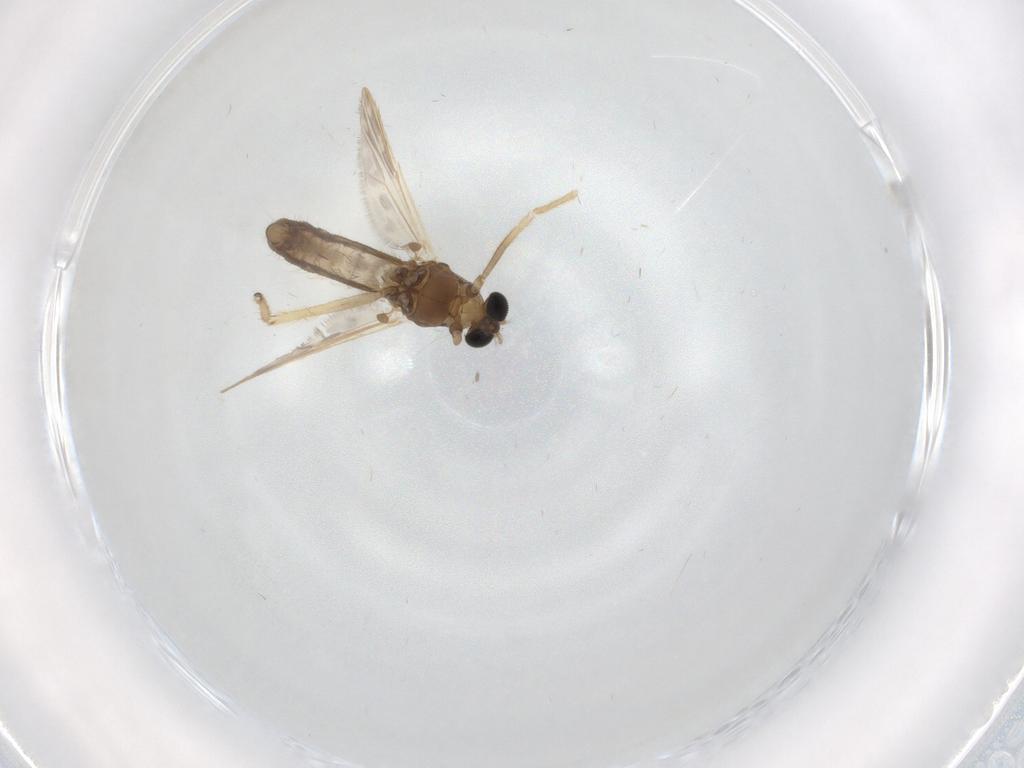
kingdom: Animalia
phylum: Arthropoda
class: Insecta
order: Diptera
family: Chironomidae
